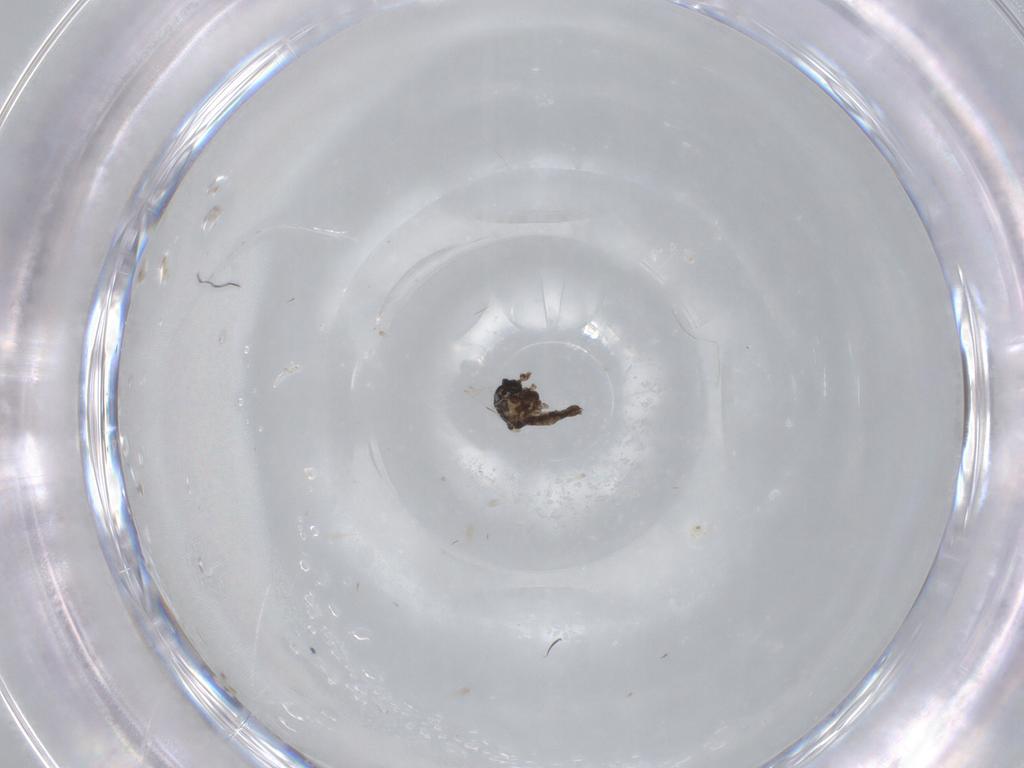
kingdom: Animalia
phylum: Arthropoda
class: Insecta
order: Diptera
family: Ceratopogonidae
